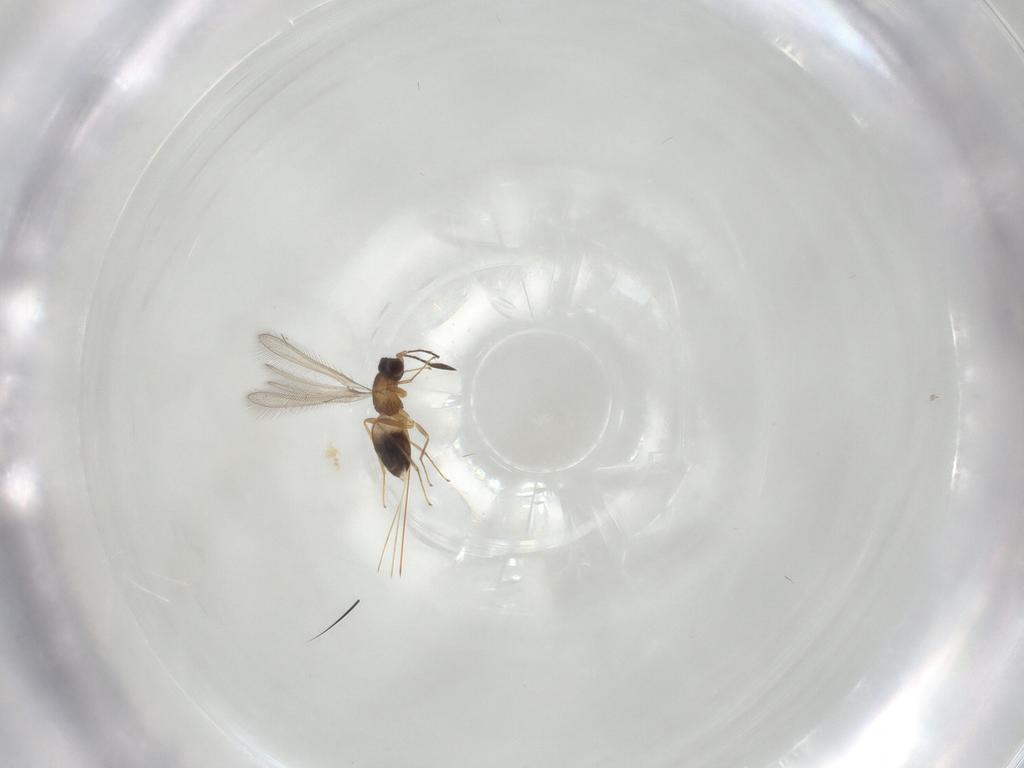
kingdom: Animalia
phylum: Arthropoda
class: Insecta
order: Hymenoptera
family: Mymaridae
